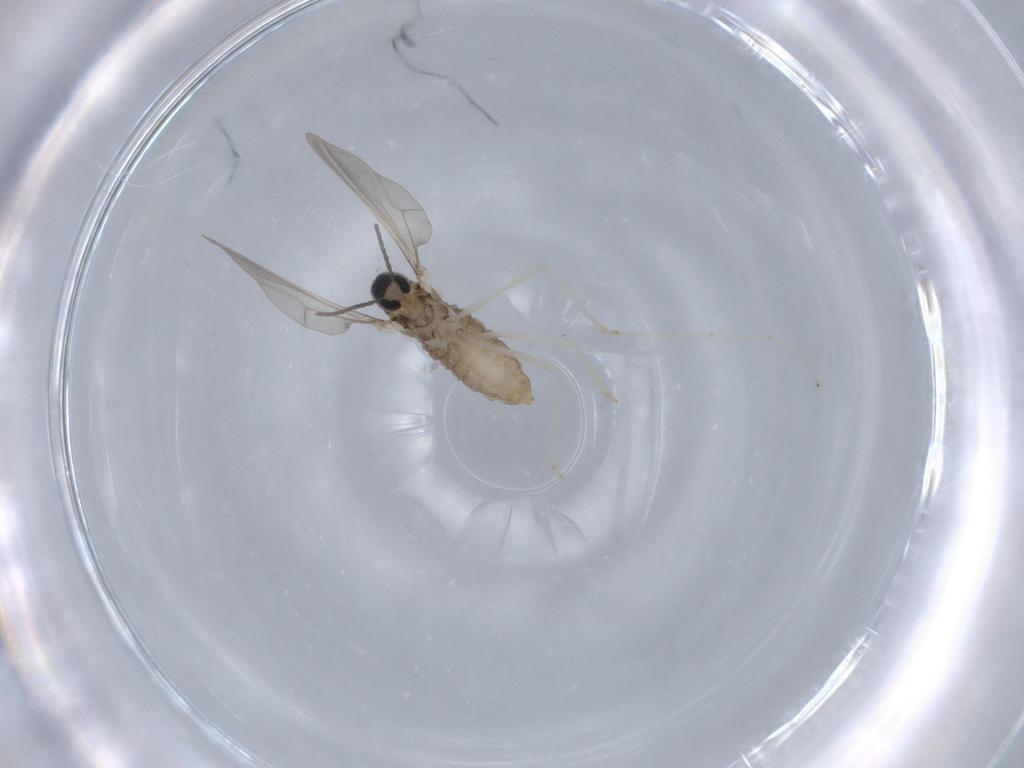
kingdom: Animalia
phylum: Arthropoda
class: Insecta
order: Diptera
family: Cecidomyiidae
